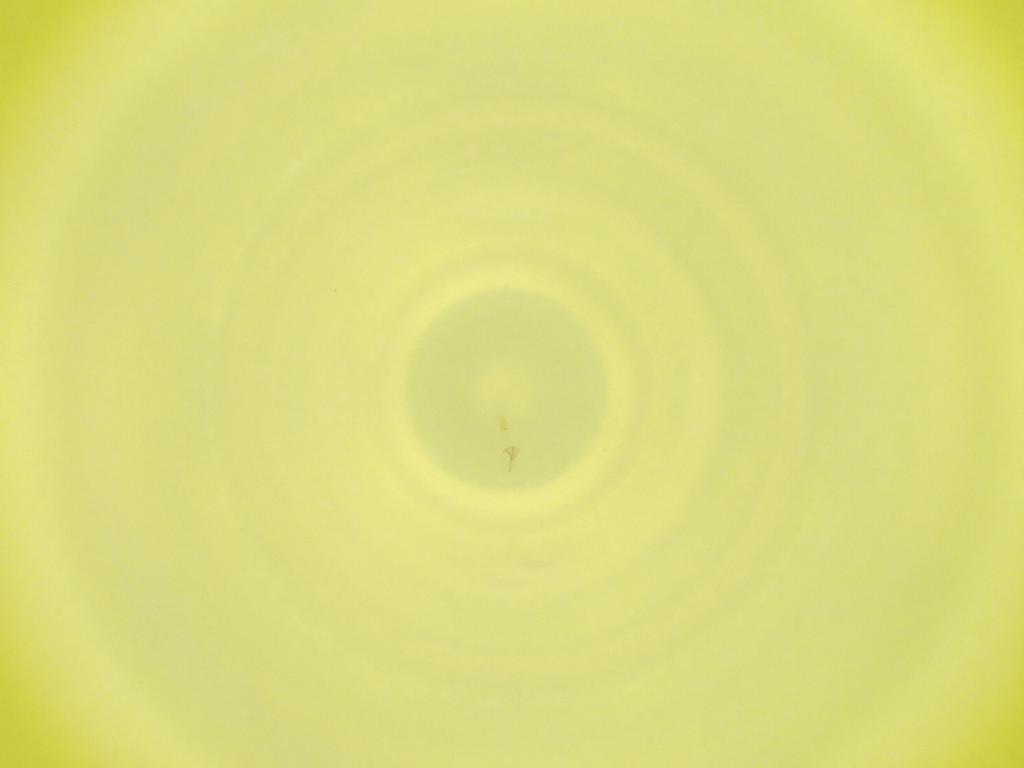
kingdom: Animalia
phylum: Arthropoda
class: Insecta
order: Diptera
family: Cecidomyiidae
